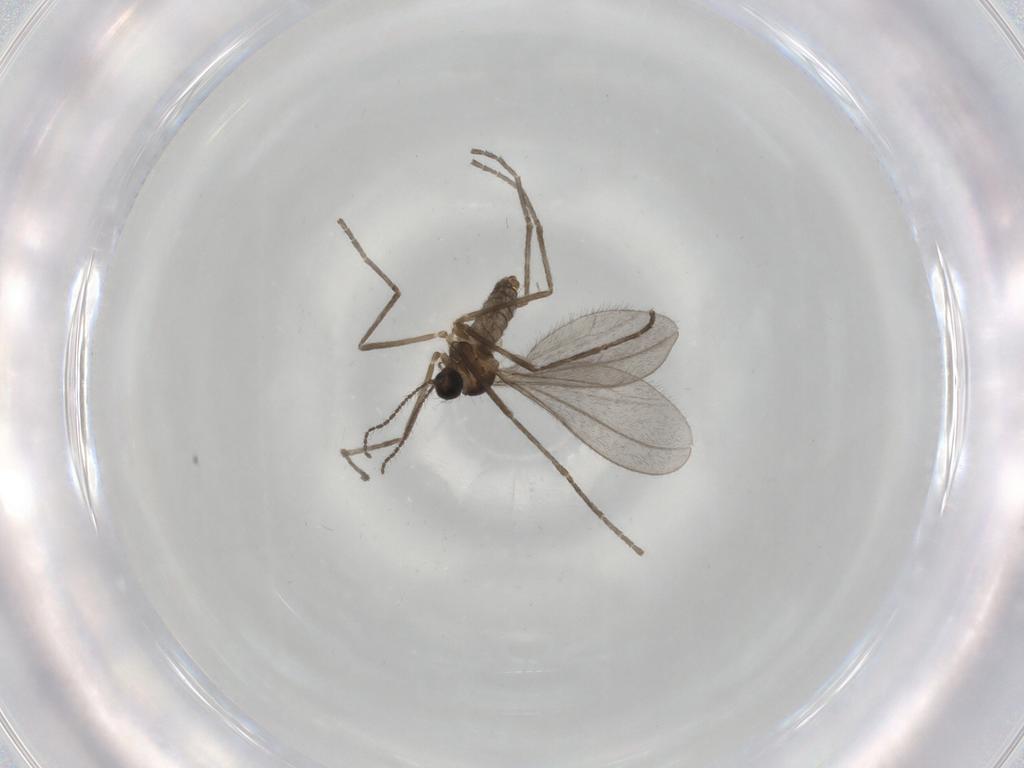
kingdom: Animalia
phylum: Arthropoda
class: Insecta
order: Diptera
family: Cecidomyiidae
